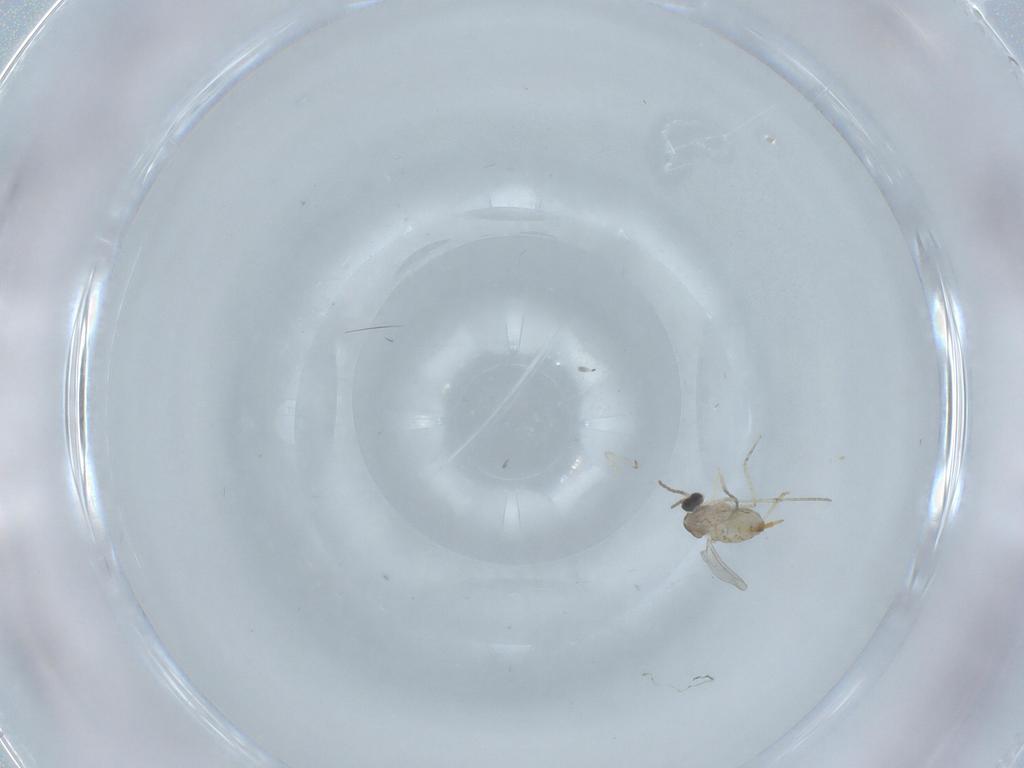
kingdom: Animalia
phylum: Arthropoda
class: Insecta
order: Diptera
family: Cecidomyiidae
